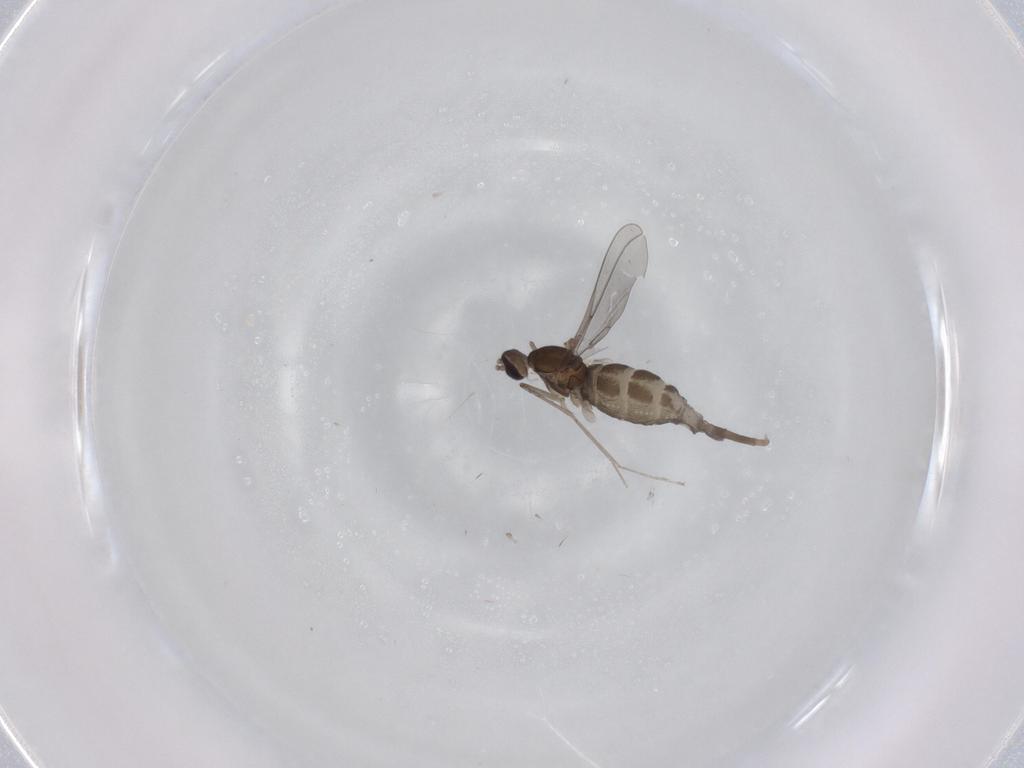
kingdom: Animalia
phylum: Arthropoda
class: Insecta
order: Diptera
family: Cecidomyiidae
